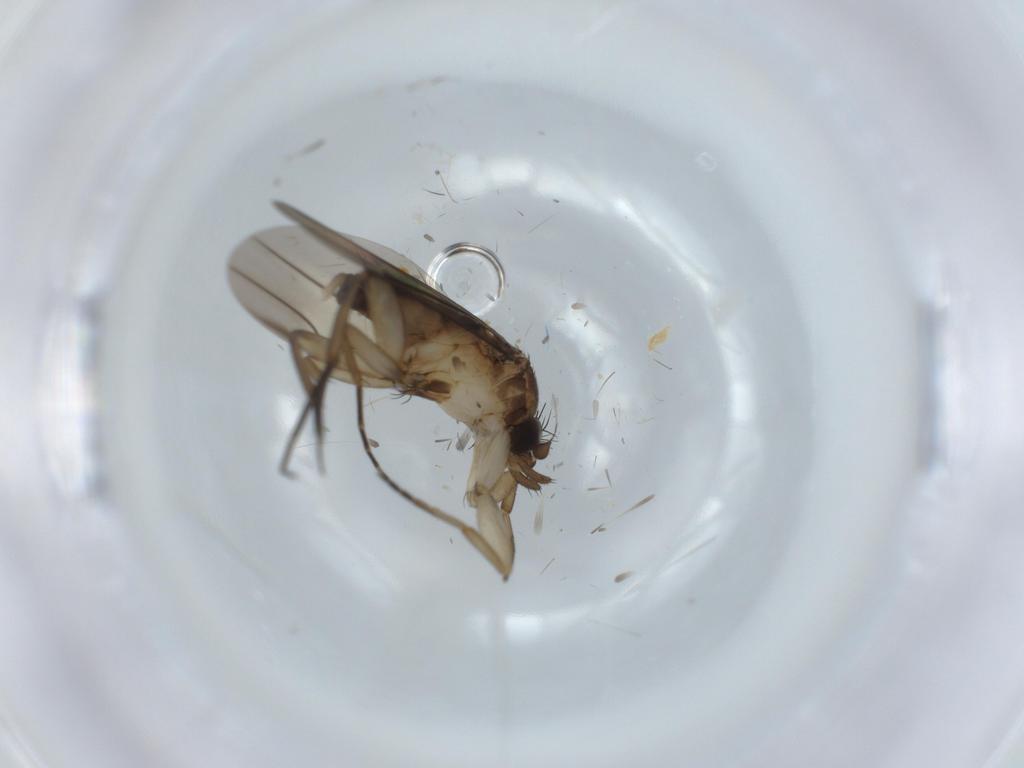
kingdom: Animalia
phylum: Arthropoda
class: Insecta
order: Diptera
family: Phoridae
